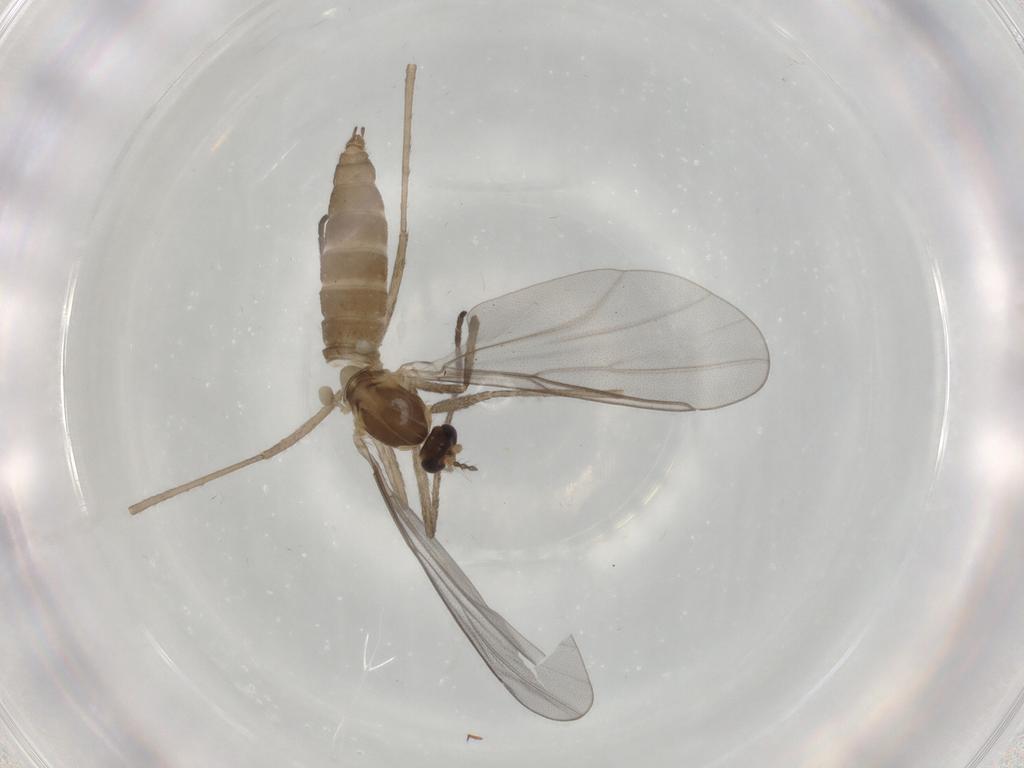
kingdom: Animalia
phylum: Arthropoda
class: Insecta
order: Diptera
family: Cecidomyiidae
